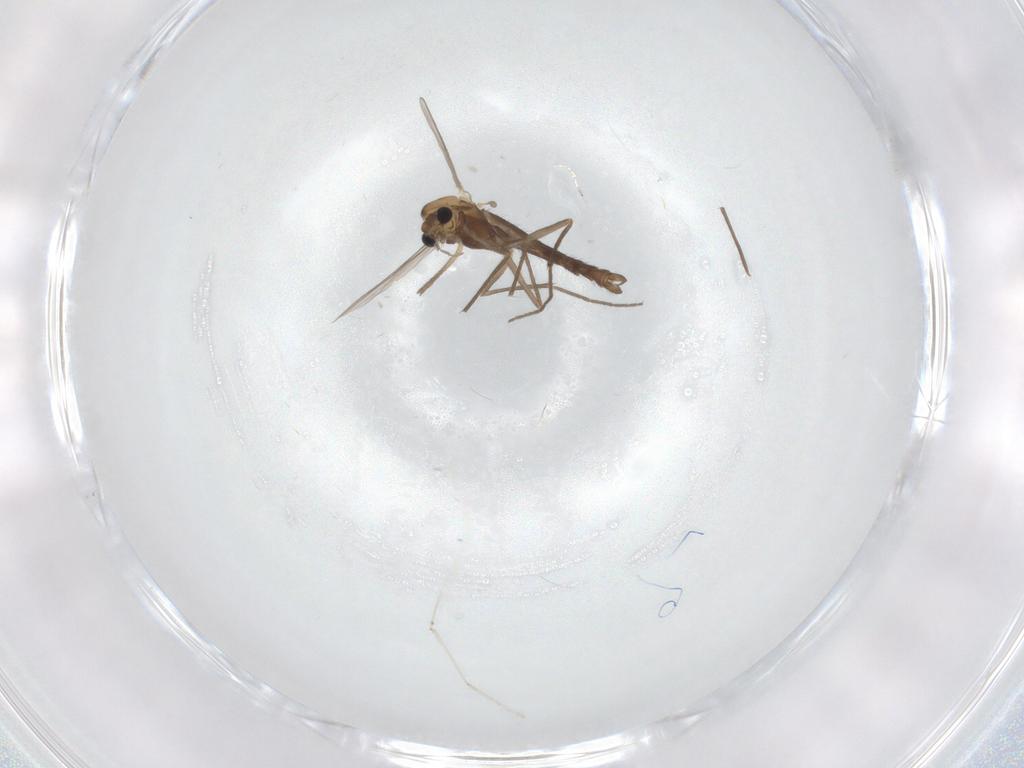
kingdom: Animalia
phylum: Arthropoda
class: Insecta
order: Diptera
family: Chironomidae
